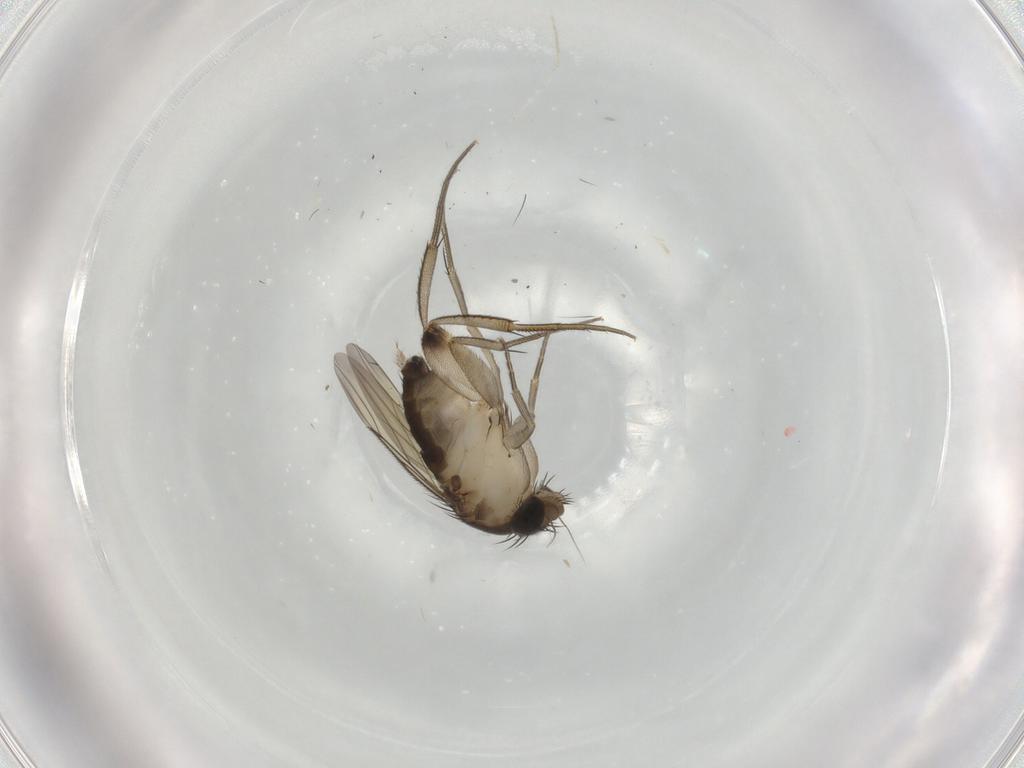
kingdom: Animalia
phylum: Arthropoda
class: Insecta
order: Diptera
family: Phoridae
